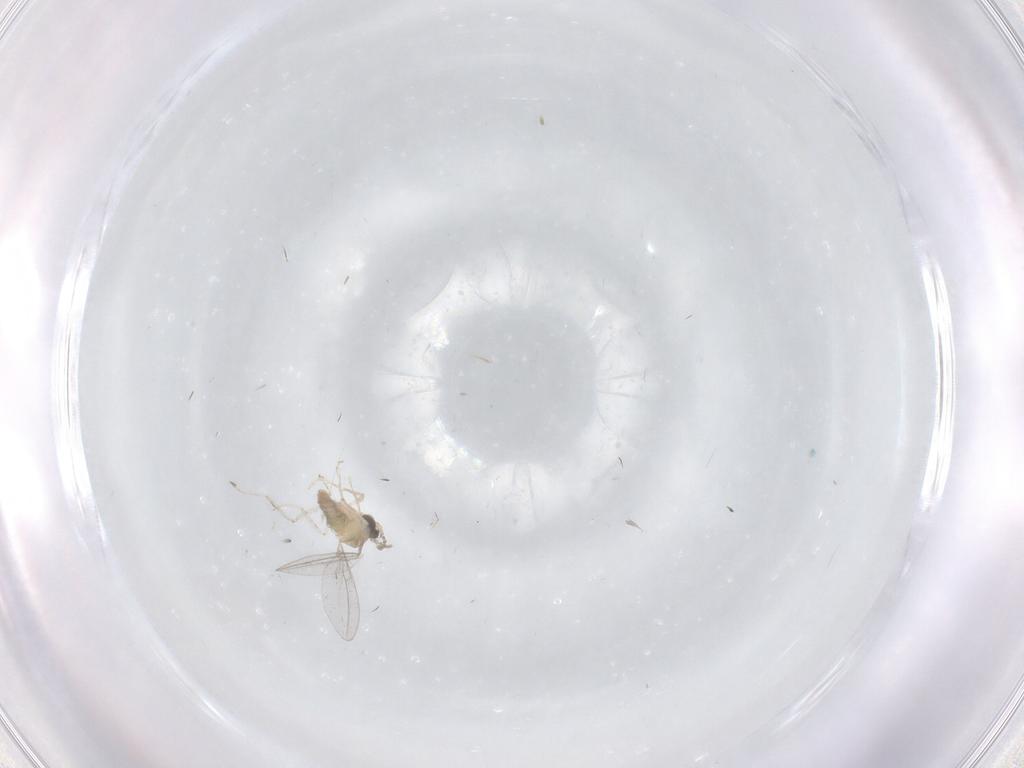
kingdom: Animalia
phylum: Arthropoda
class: Insecta
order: Diptera
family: Cecidomyiidae
